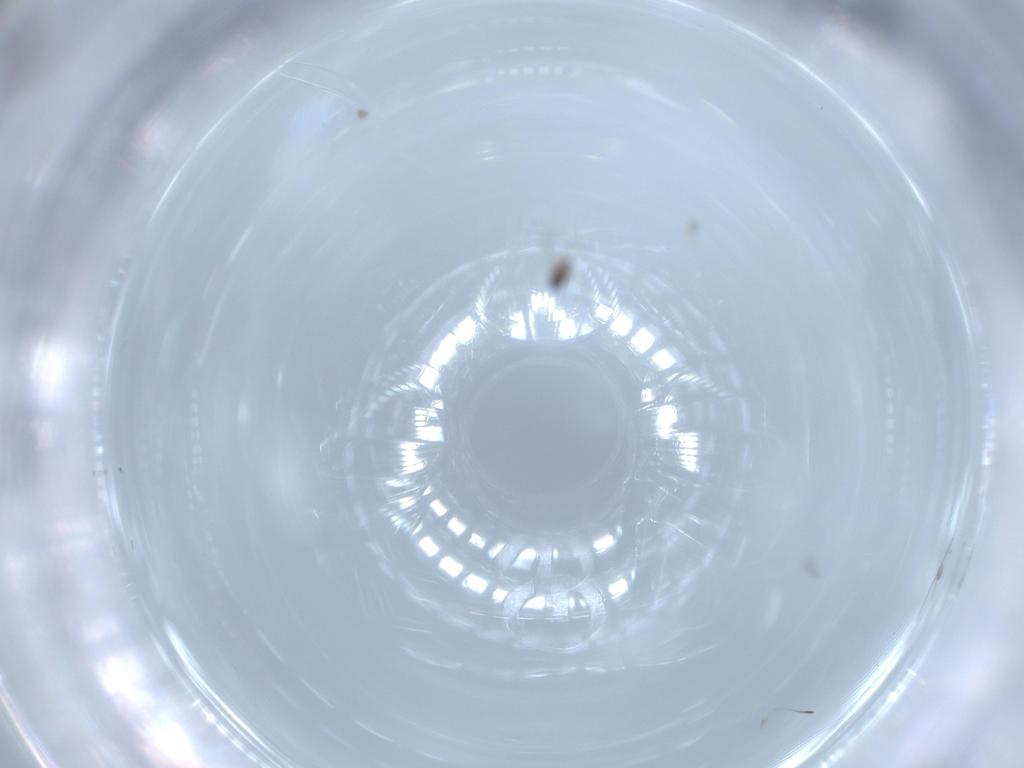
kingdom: Animalia
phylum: Arthropoda
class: Insecta
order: Hymenoptera
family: Mymaridae
